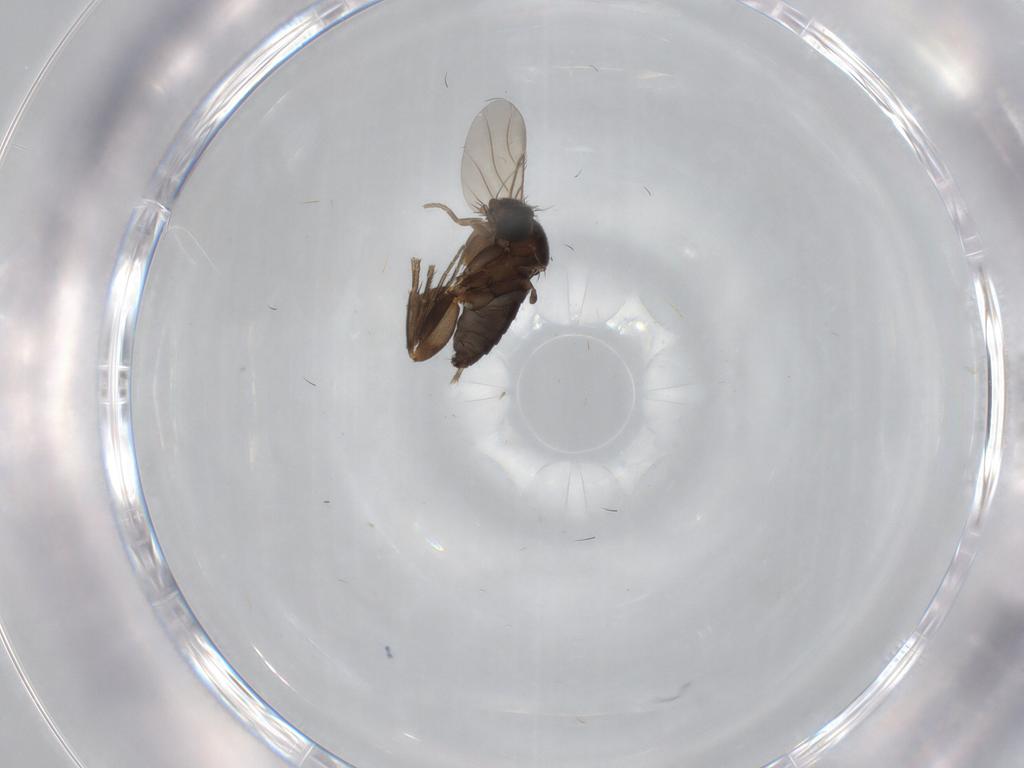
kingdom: Animalia
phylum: Arthropoda
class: Insecta
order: Diptera
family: Phoridae
